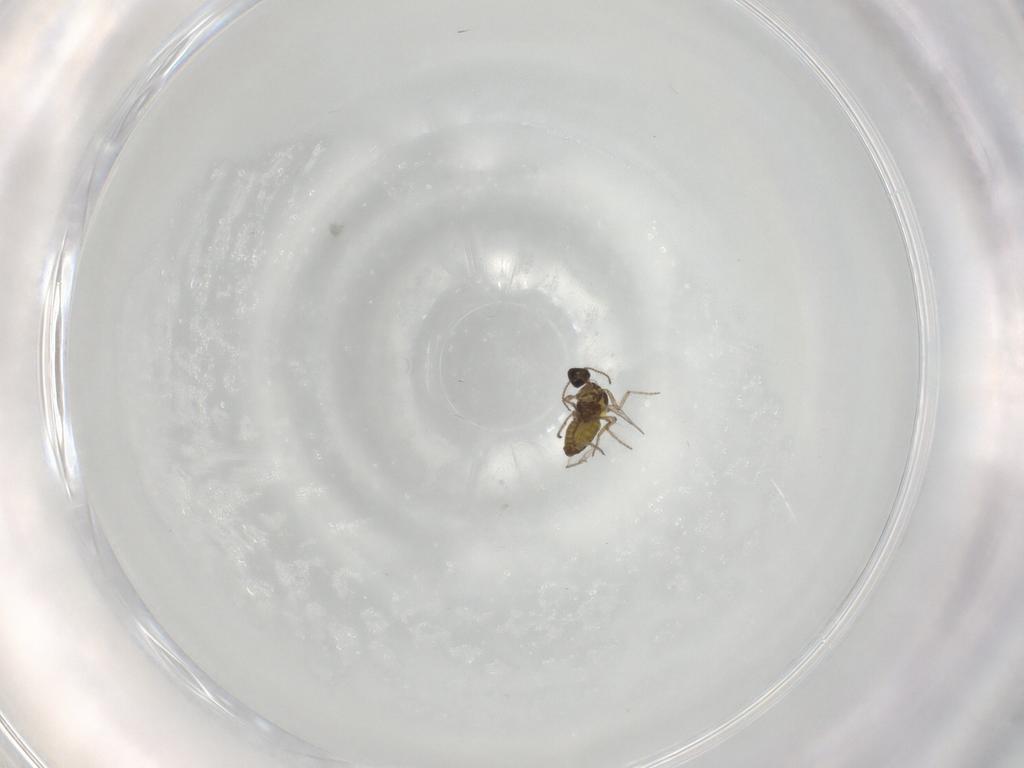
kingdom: Animalia
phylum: Arthropoda
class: Insecta
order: Diptera
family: Ceratopogonidae
